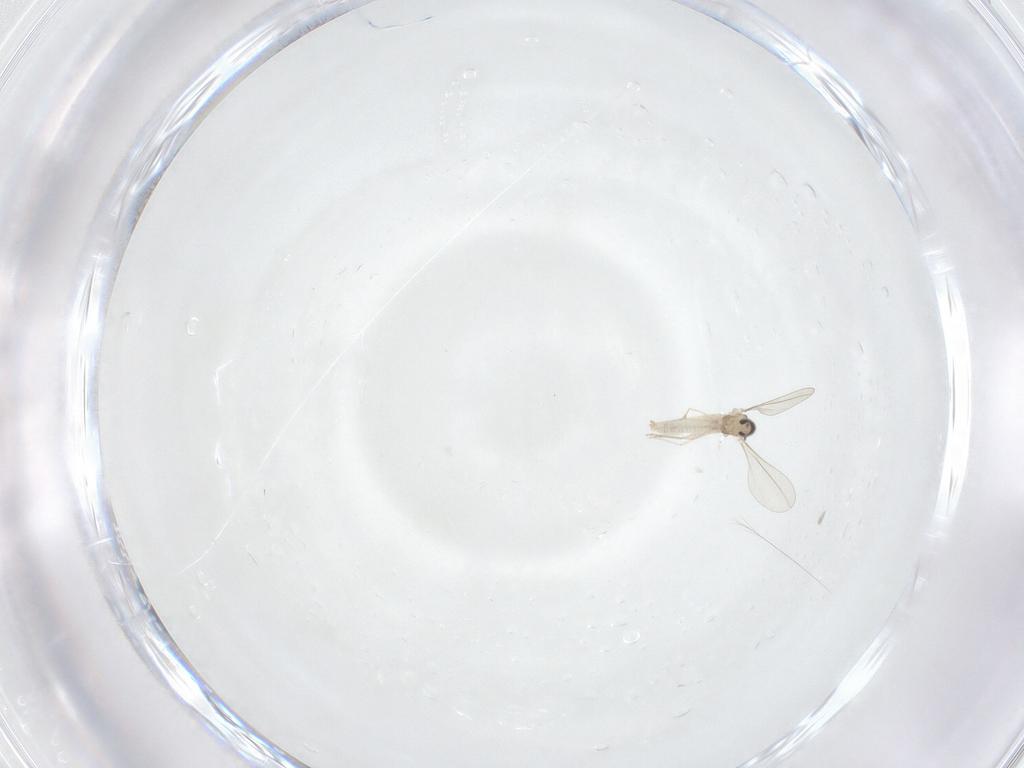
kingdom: Animalia
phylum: Arthropoda
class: Insecta
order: Diptera
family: Cecidomyiidae
